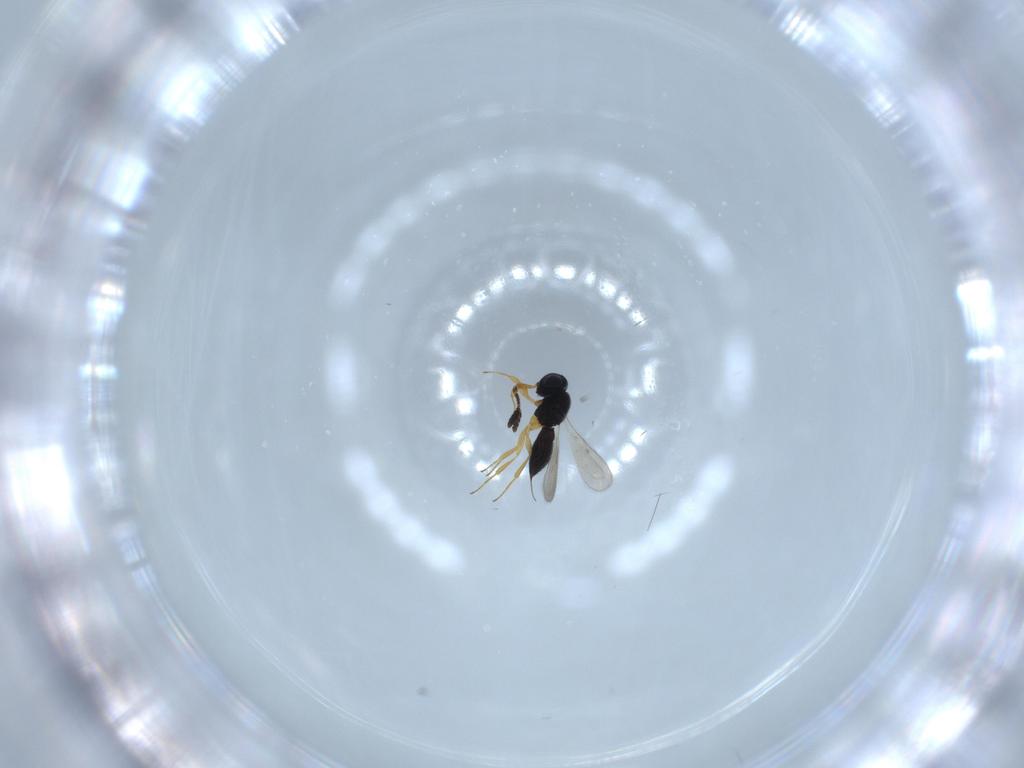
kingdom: Animalia
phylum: Arthropoda
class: Insecta
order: Hymenoptera
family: Scelionidae
